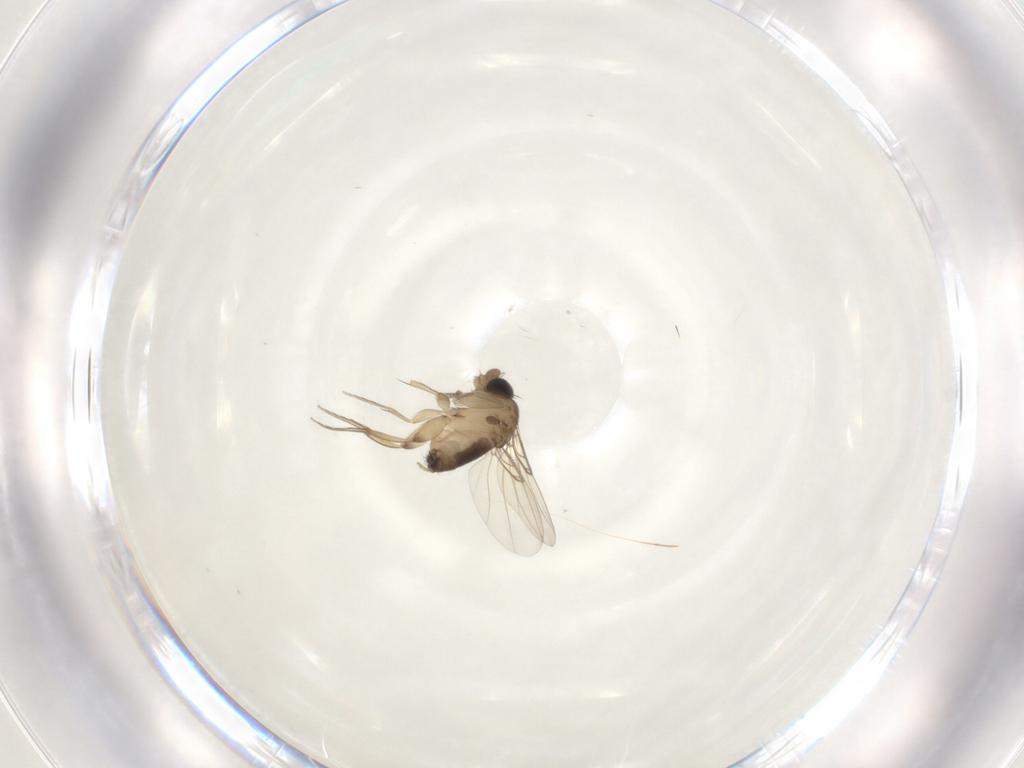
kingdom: Animalia
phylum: Arthropoda
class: Insecta
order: Diptera
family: Phoridae
